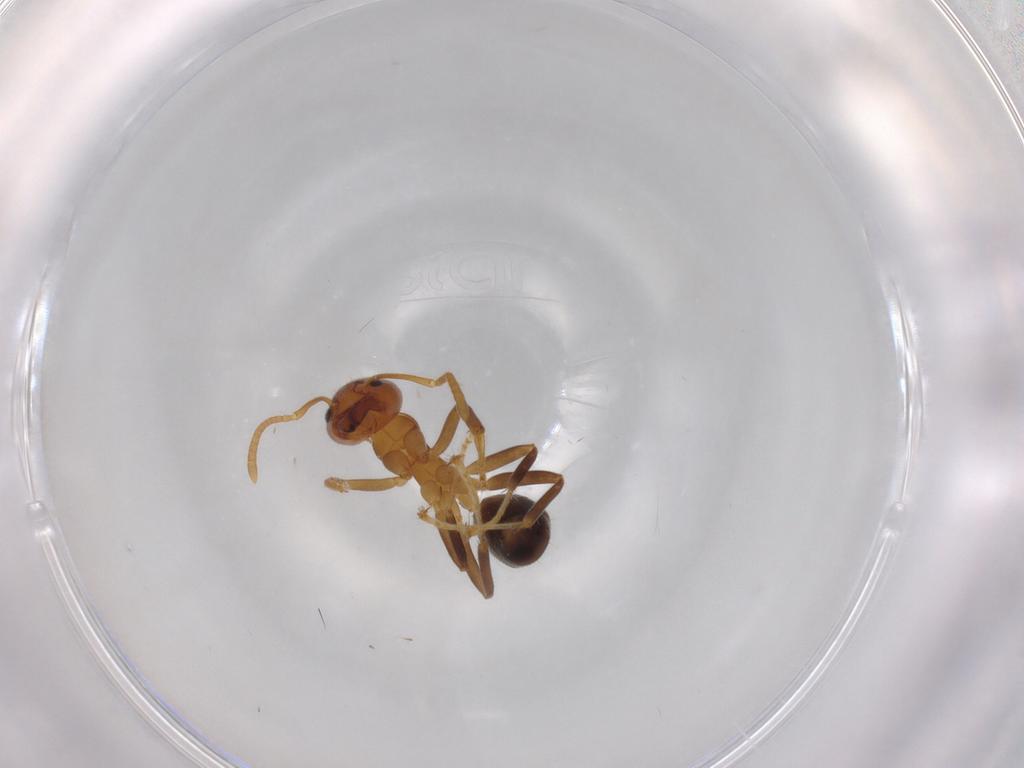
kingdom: Animalia
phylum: Arthropoda
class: Insecta
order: Hymenoptera
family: Formicidae
